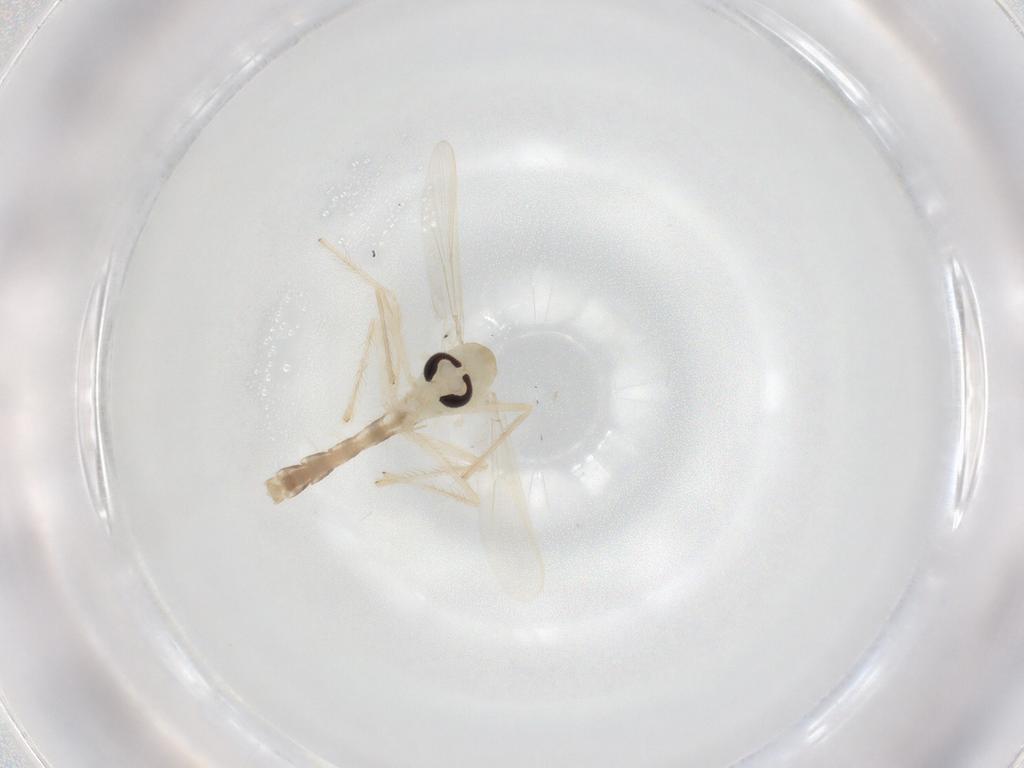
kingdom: Animalia
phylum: Arthropoda
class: Insecta
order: Diptera
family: Chironomidae
